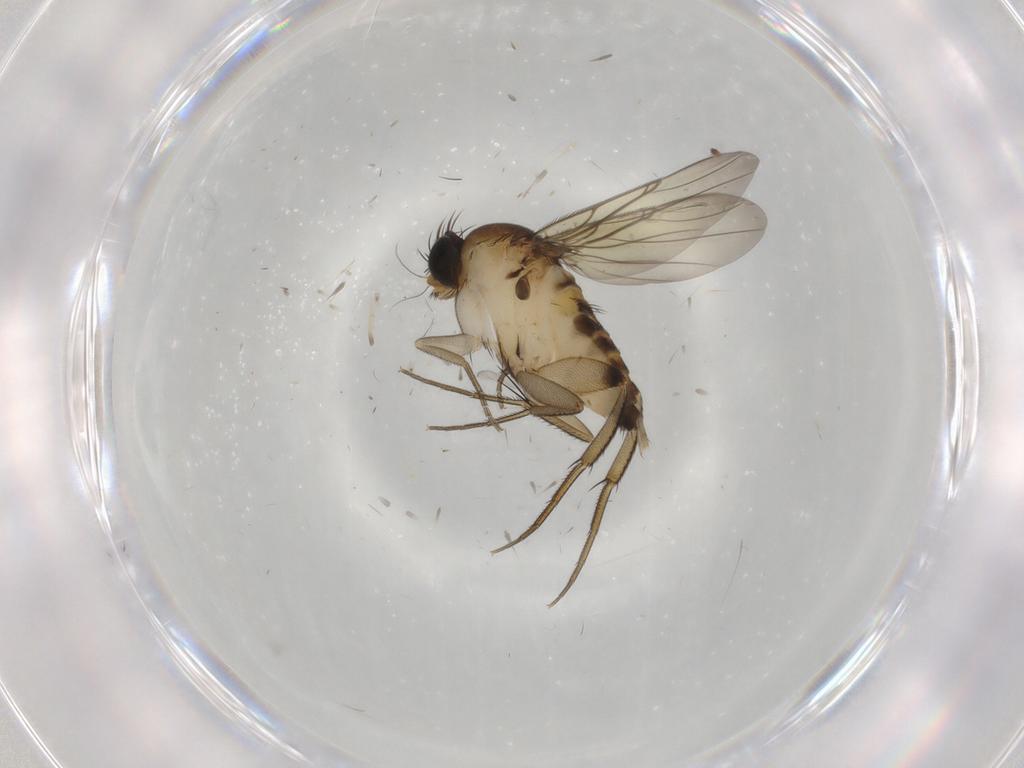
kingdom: Animalia
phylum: Arthropoda
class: Insecta
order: Diptera
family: Phoridae
